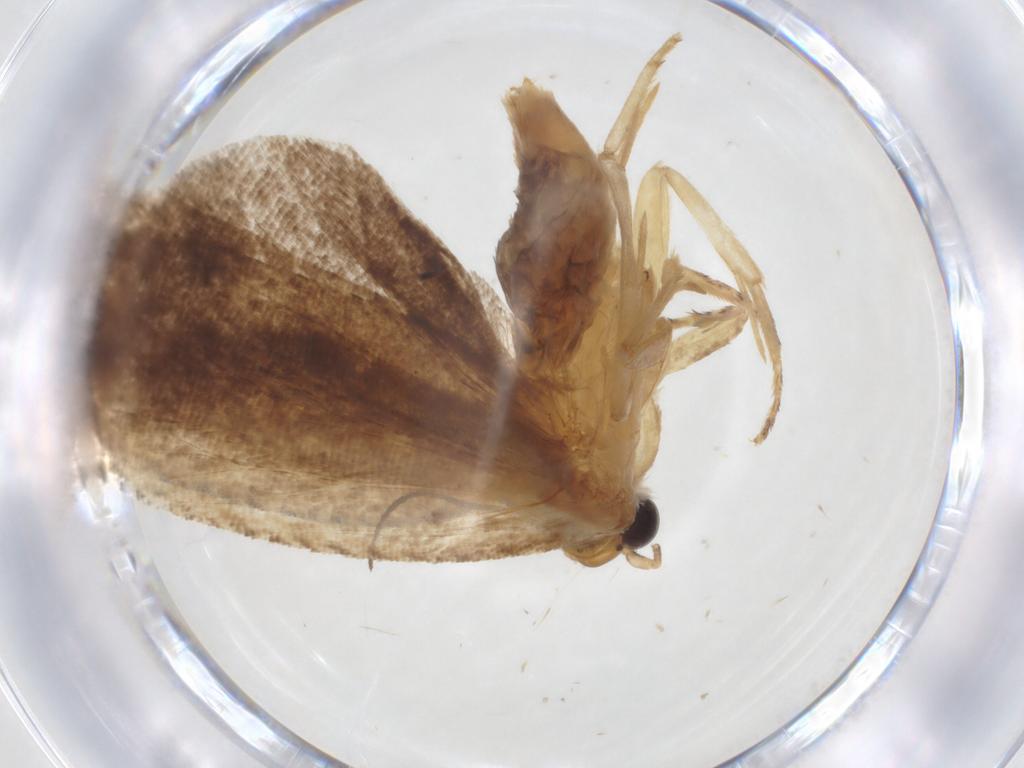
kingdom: Animalia
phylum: Arthropoda
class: Insecta
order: Lepidoptera
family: Tortricidae
